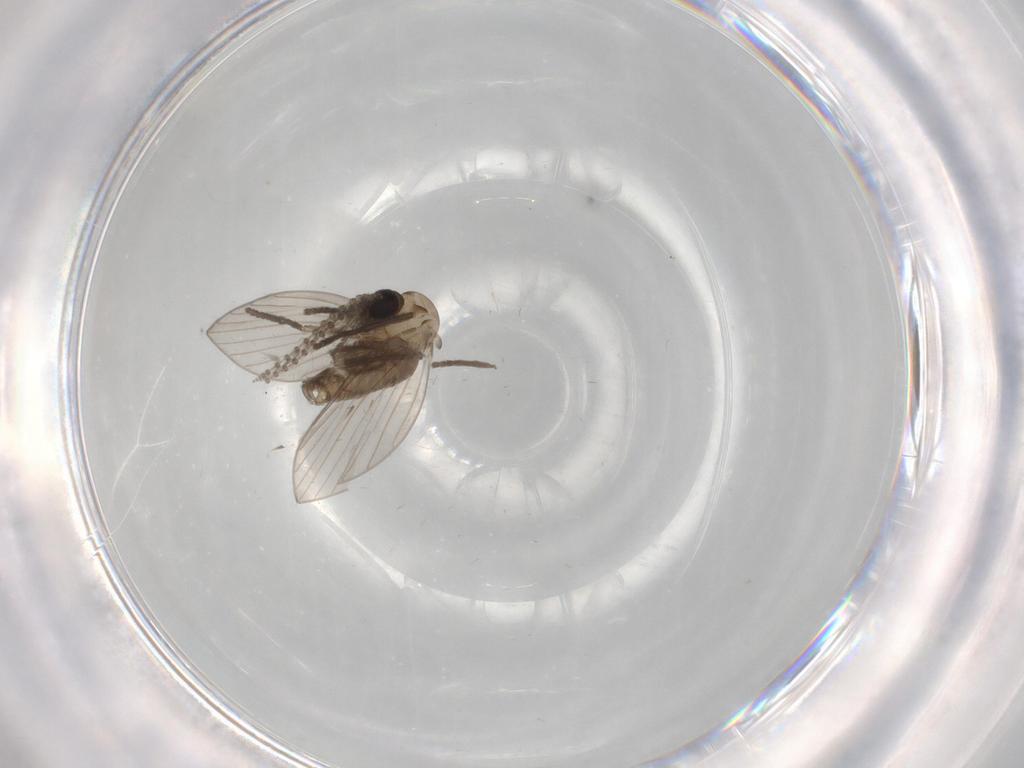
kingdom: Animalia
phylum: Arthropoda
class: Insecta
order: Diptera
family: Psychodidae
